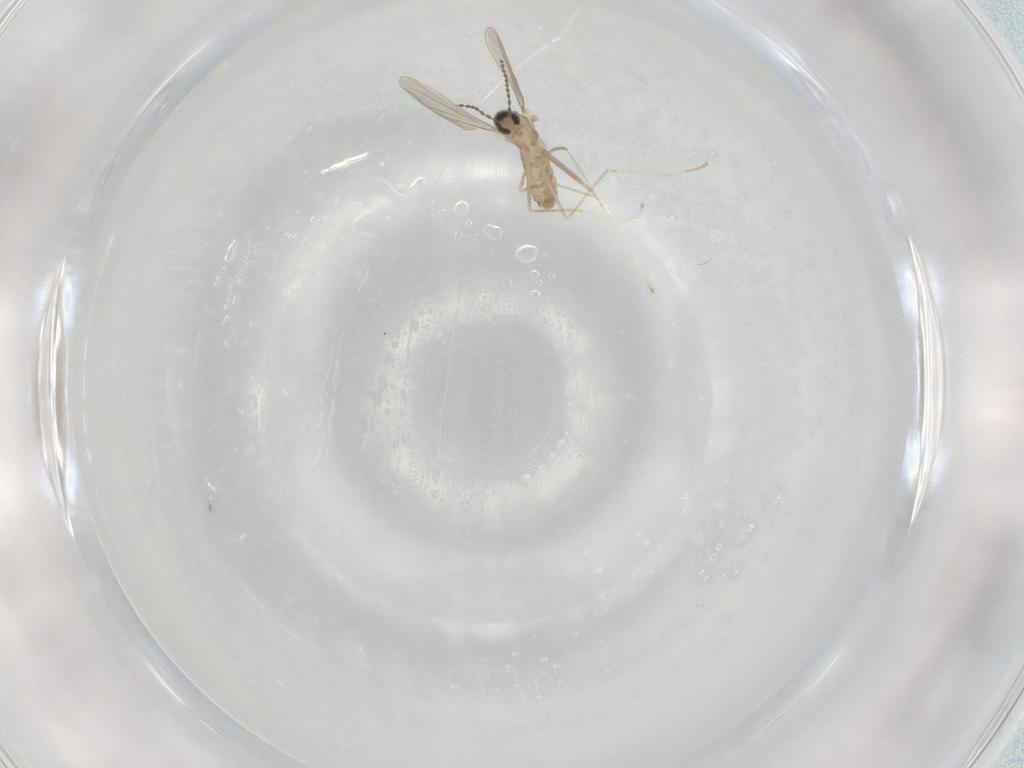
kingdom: Animalia
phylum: Arthropoda
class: Insecta
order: Diptera
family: Cecidomyiidae
